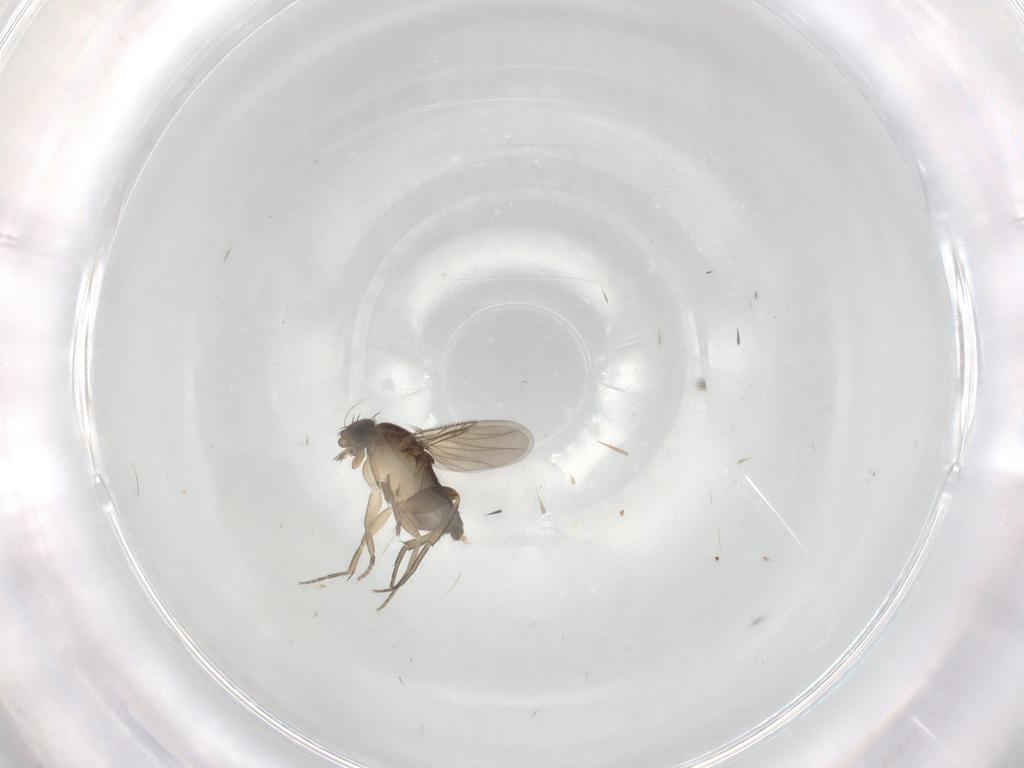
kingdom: Animalia
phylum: Arthropoda
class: Insecta
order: Diptera
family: Ceratopogonidae
